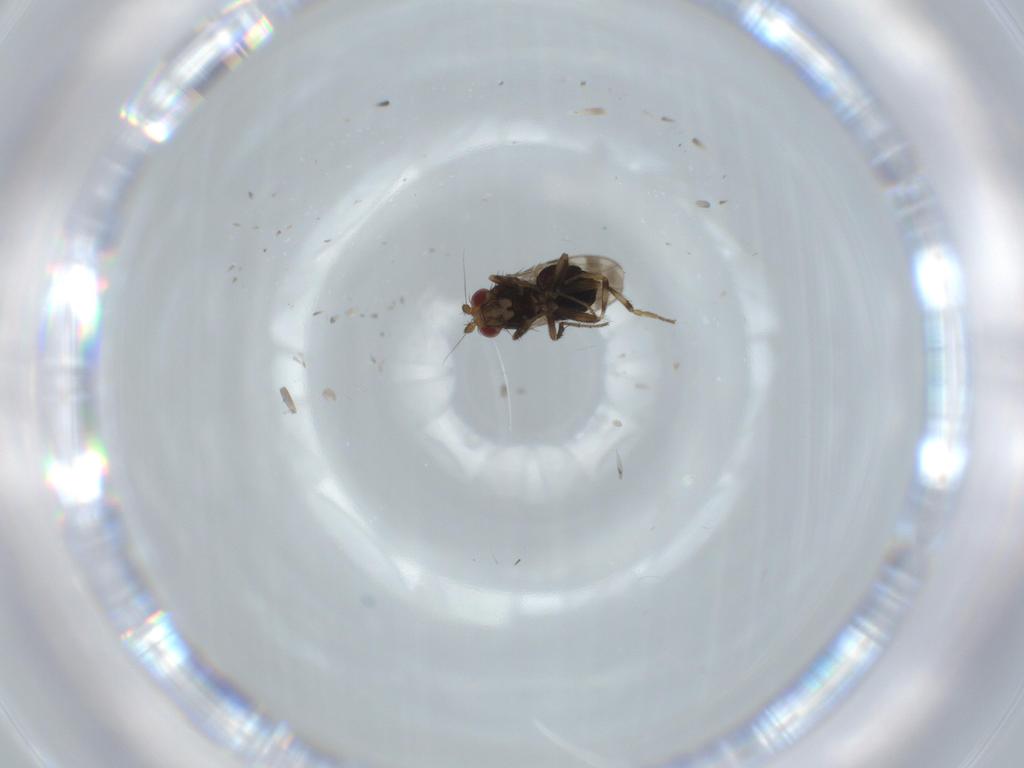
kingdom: Animalia
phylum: Arthropoda
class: Insecta
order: Diptera
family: Sphaeroceridae
